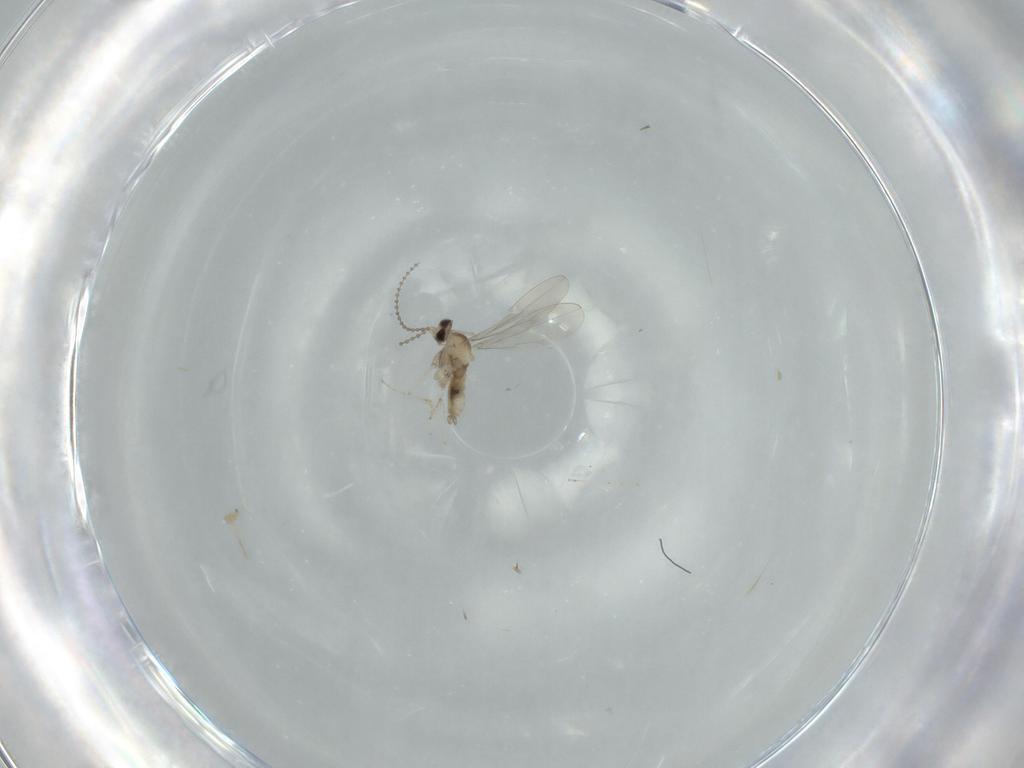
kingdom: Animalia
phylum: Arthropoda
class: Insecta
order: Diptera
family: Cecidomyiidae
